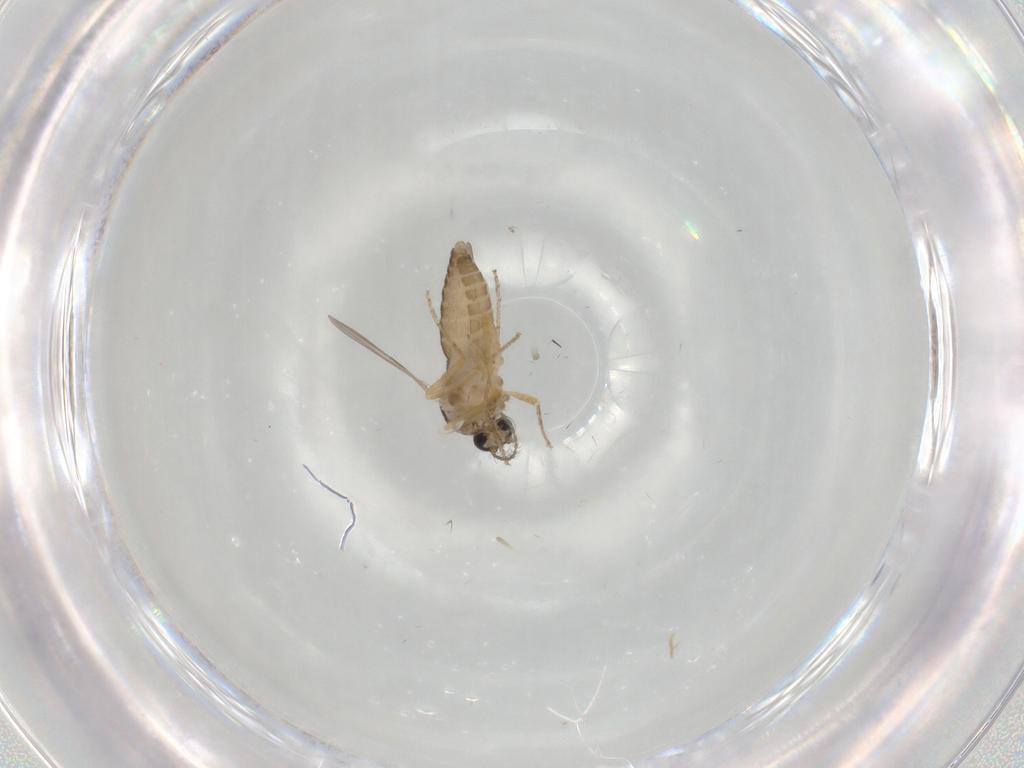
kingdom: Animalia
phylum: Arthropoda
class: Insecta
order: Diptera
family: Ceratopogonidae
